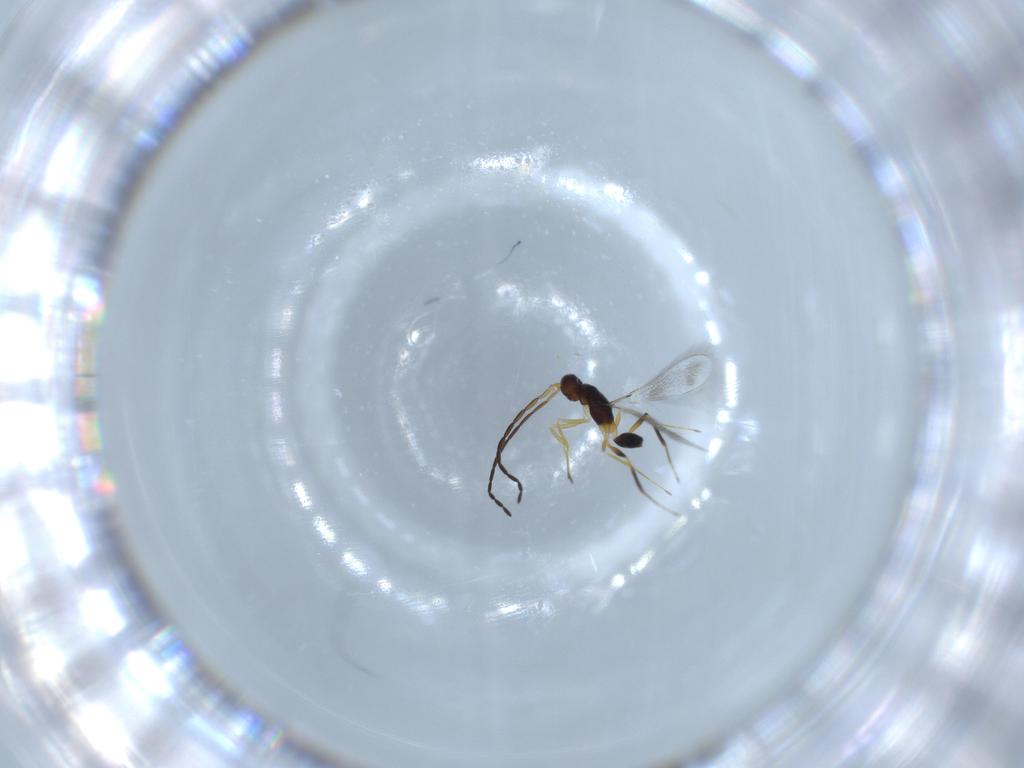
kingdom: Animalia
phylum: Arthropoda
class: Insecta
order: Hymenoptera
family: Mymaridae
